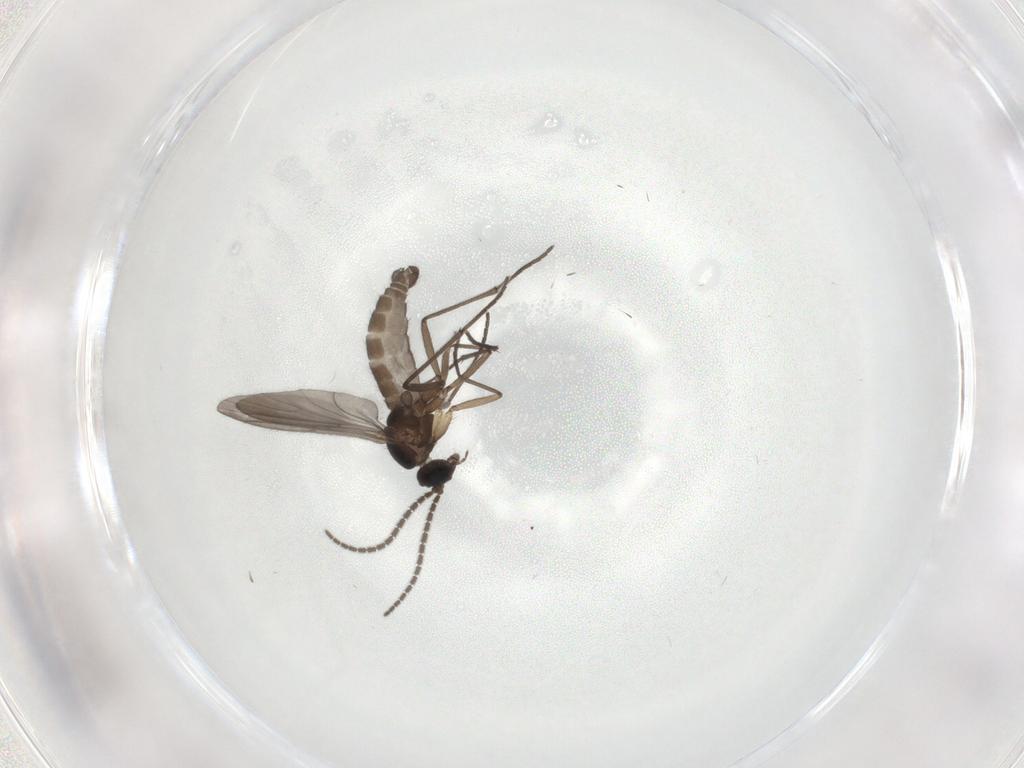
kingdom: Animalia
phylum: Arthropoda
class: Insecta
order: Diptera
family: Sciaridae
